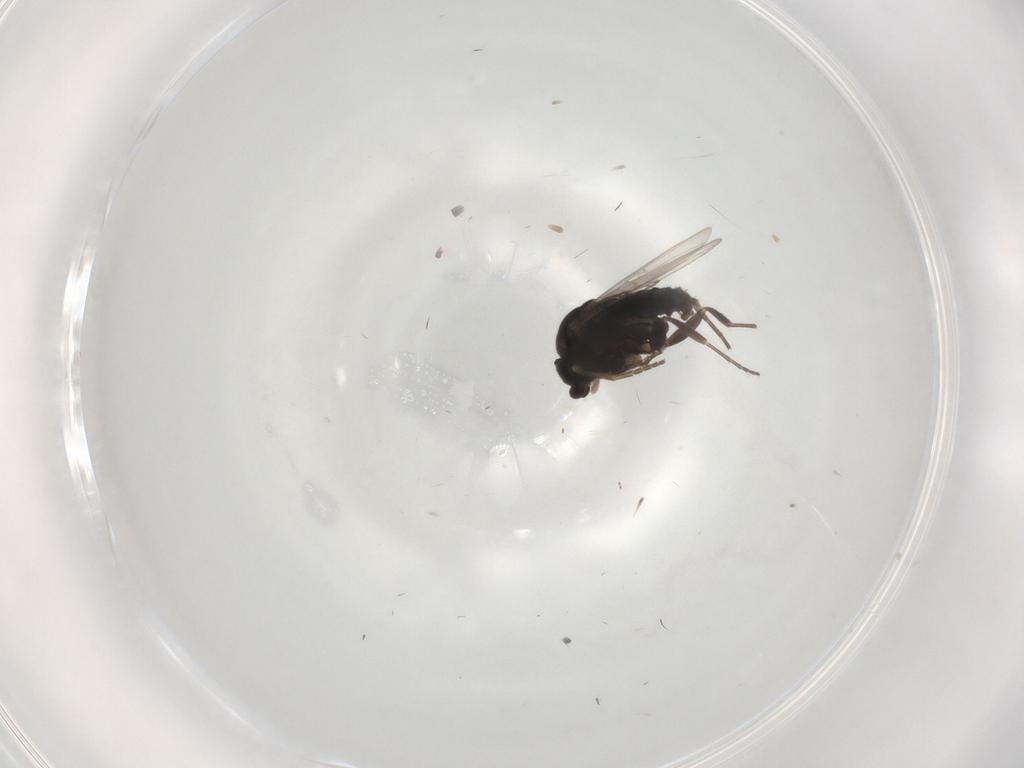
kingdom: Animalia
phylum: Arthropoda
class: Insecta
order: Diptera
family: Phoridae
